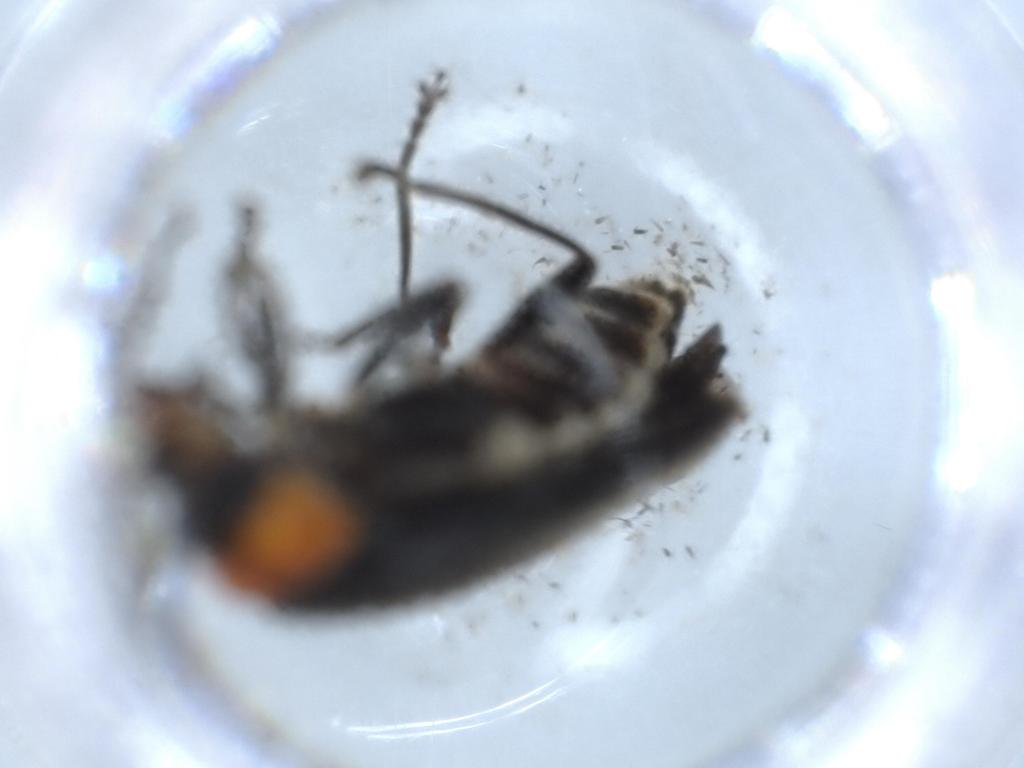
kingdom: Animalia
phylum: Arthropoda
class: Insecta
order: Coleoptera
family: Cantharidae
